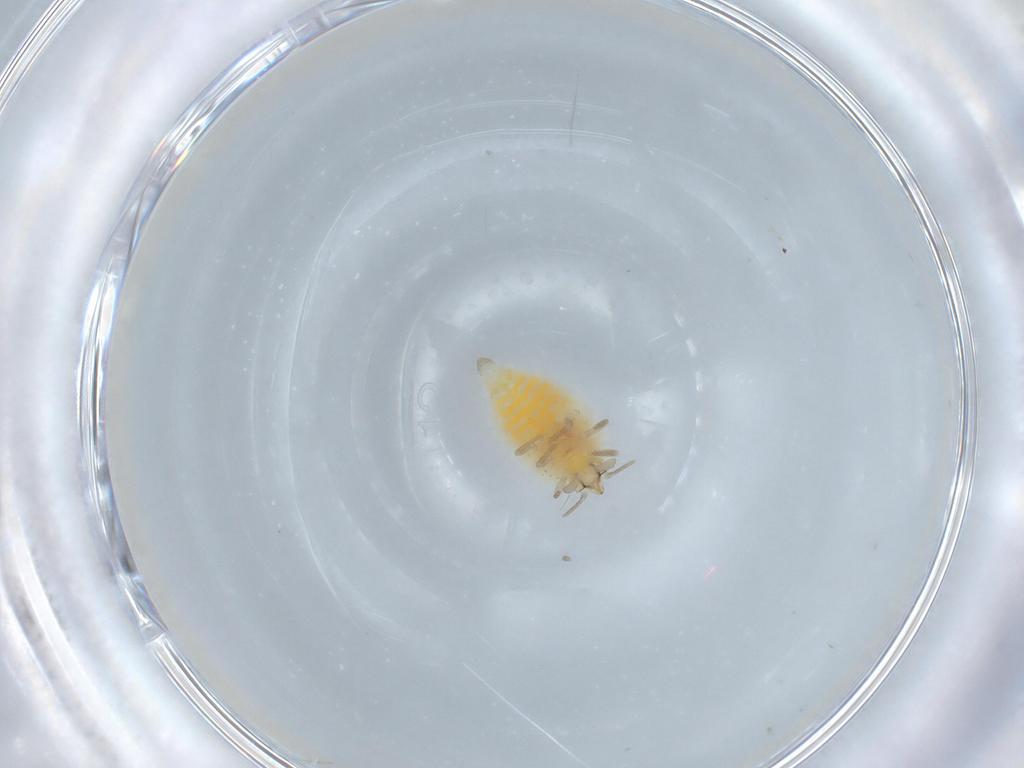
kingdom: Animalia
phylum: Arthropoda
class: Insecta
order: Neuroptera
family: Coniopterygidae
